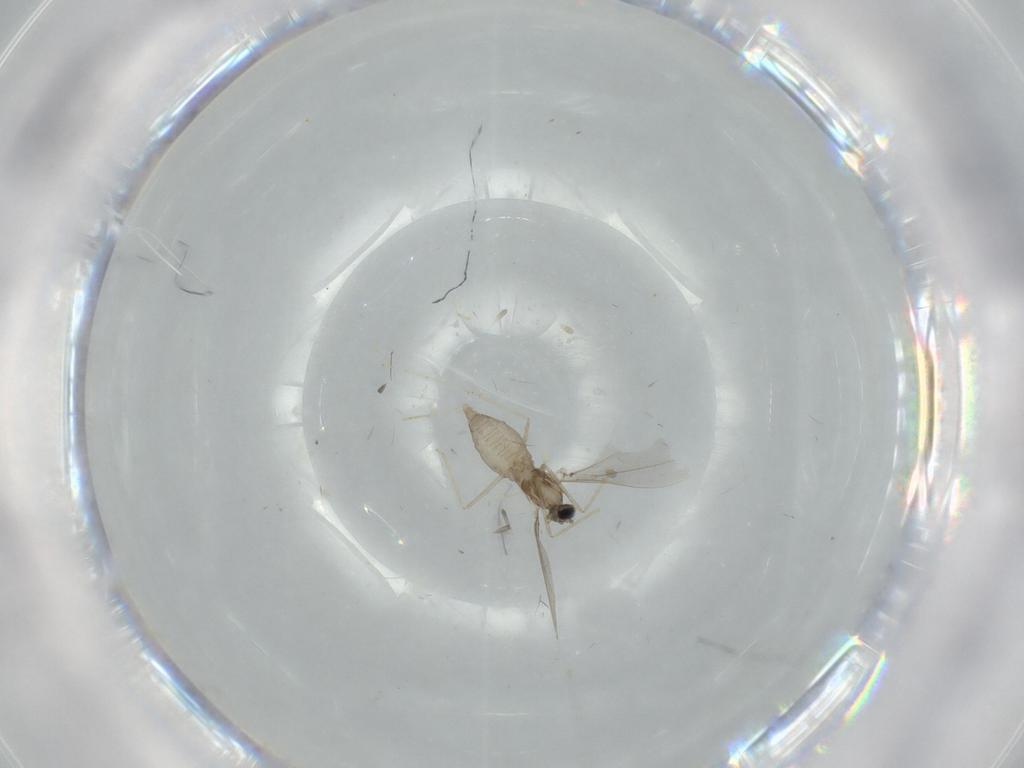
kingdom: Animalia
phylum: Arthropoda
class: Insecta
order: Diptera
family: Cecidomyiidae
